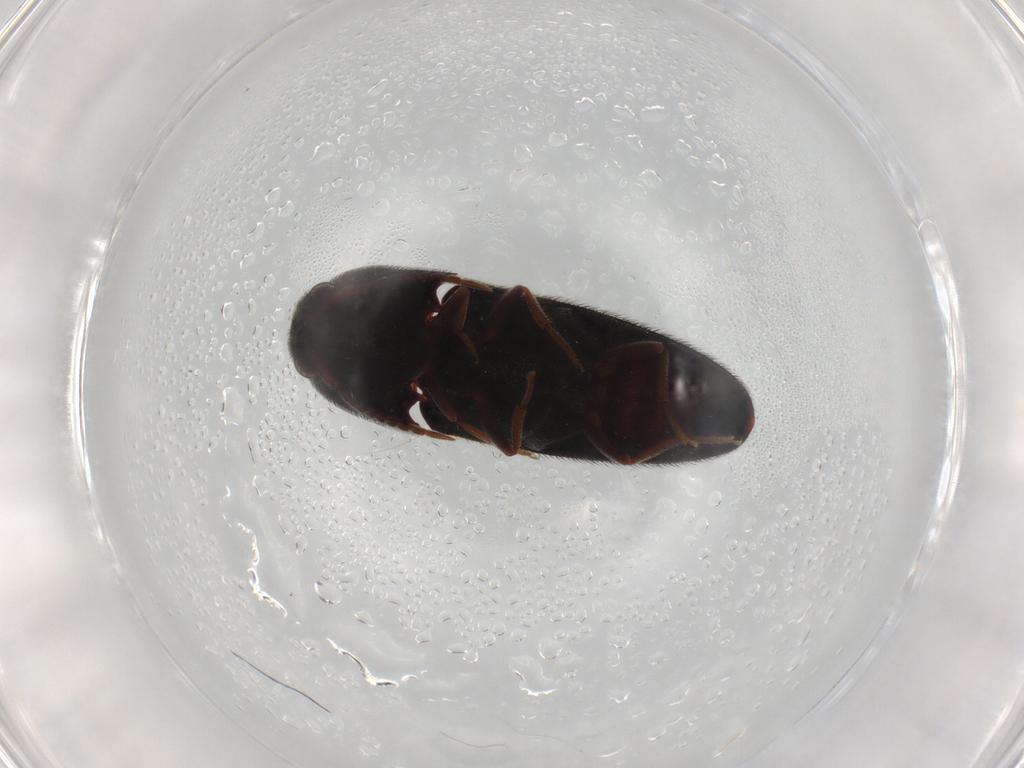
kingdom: Animalia
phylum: Arthropoda
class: Insecta
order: Coleoptera
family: Eucnemidae
